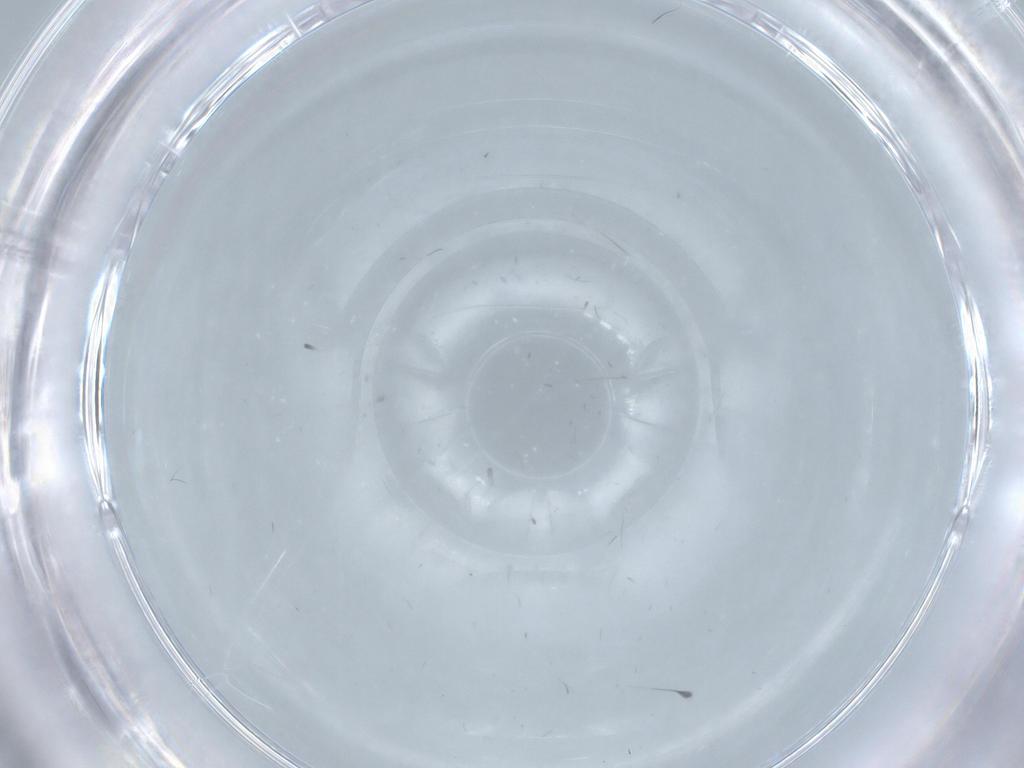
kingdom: Animalia
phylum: Arthropoda
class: Insecta
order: Diptera
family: Cecidomyiidae
